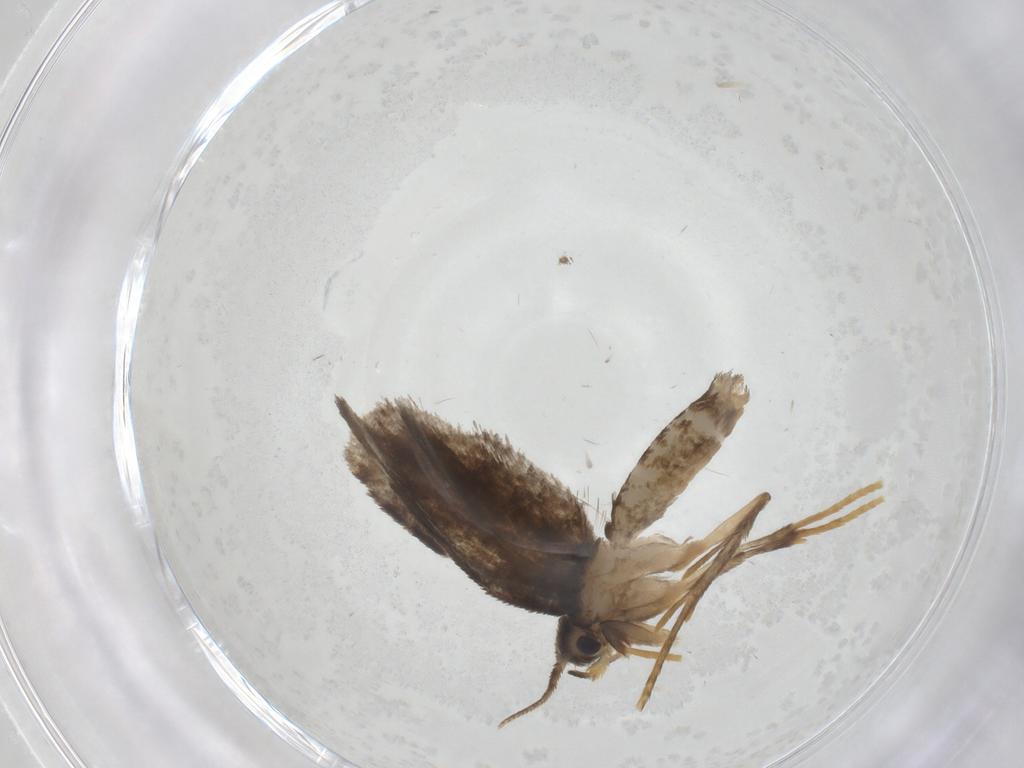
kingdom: Animalia
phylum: Arthropoda
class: Insecta
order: Lepidoptera
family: Psychidae
